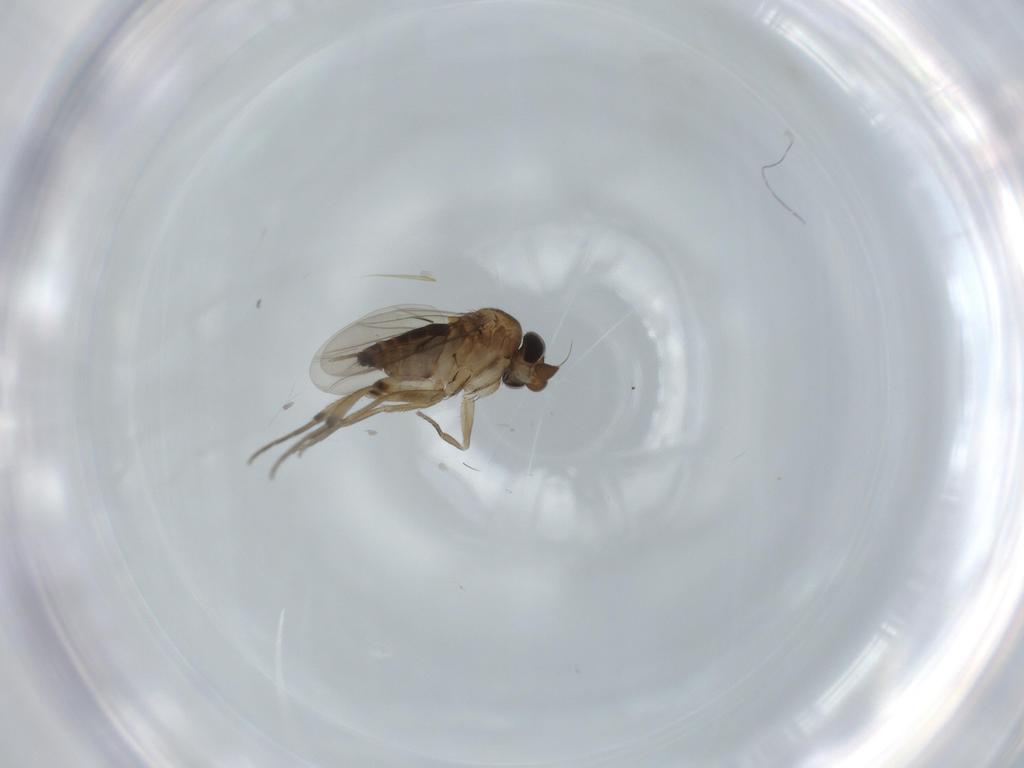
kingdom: Animalia
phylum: Arthropoda
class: Insecta
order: Diptera
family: Phoridae
